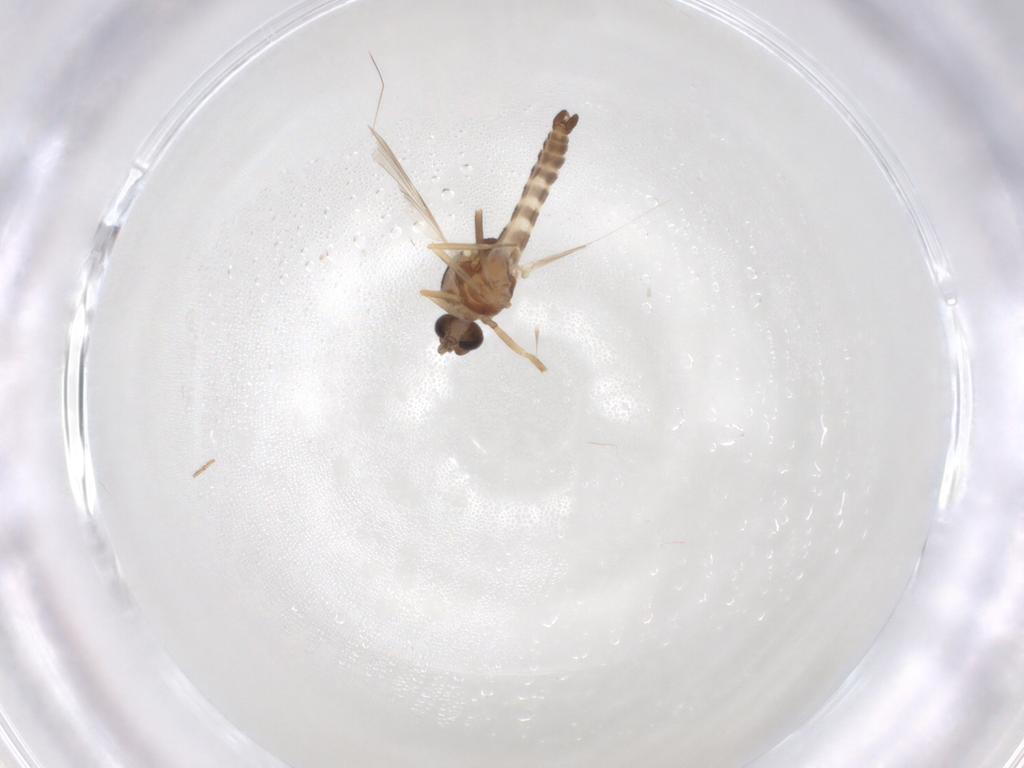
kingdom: Animalia
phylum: Arthropoda
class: Insecta
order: Diptera
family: Ceratopogonidae
